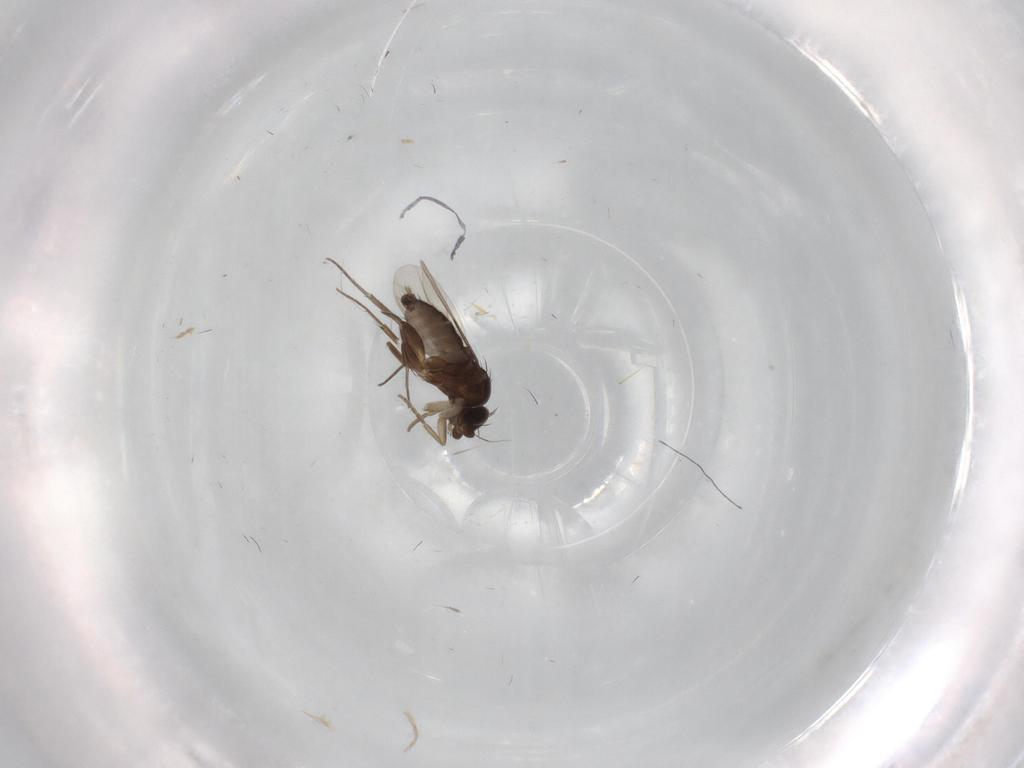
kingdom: Animalia
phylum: Arthropoda
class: Insecta
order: Diptera
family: Phoridae
